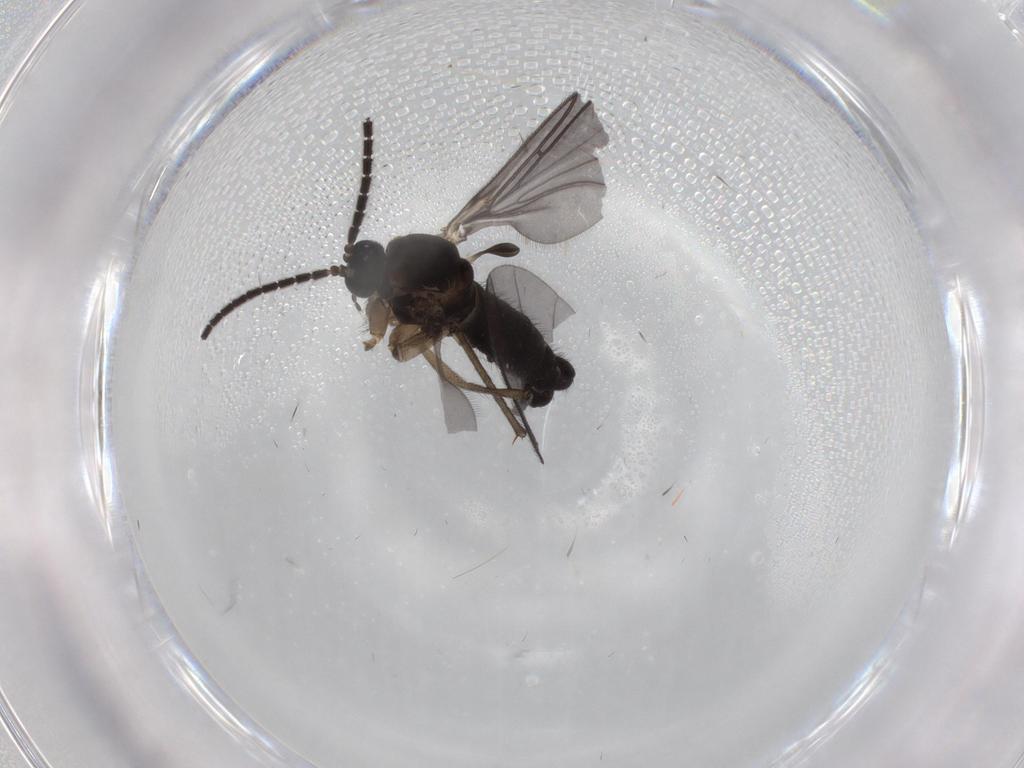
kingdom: Animalia
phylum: Arthropoda
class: Insecta
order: Diptera
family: Sciaridae
